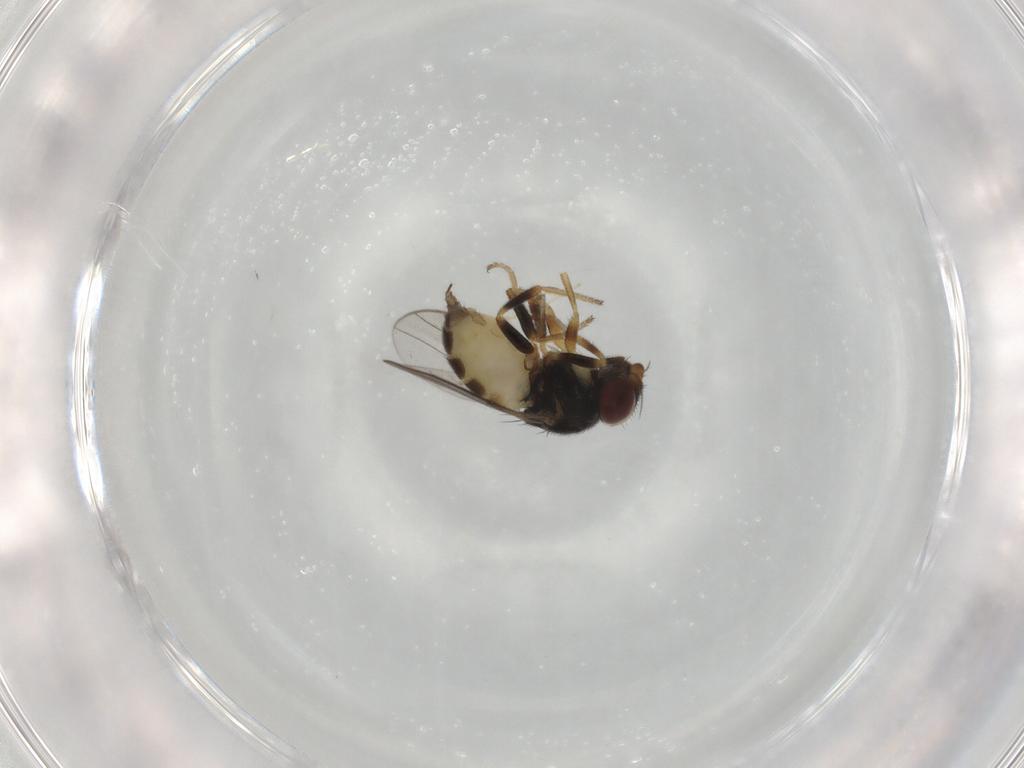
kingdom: Animalia
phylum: Arthropoda
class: Insecta
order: Diptera
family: Chloropidae
